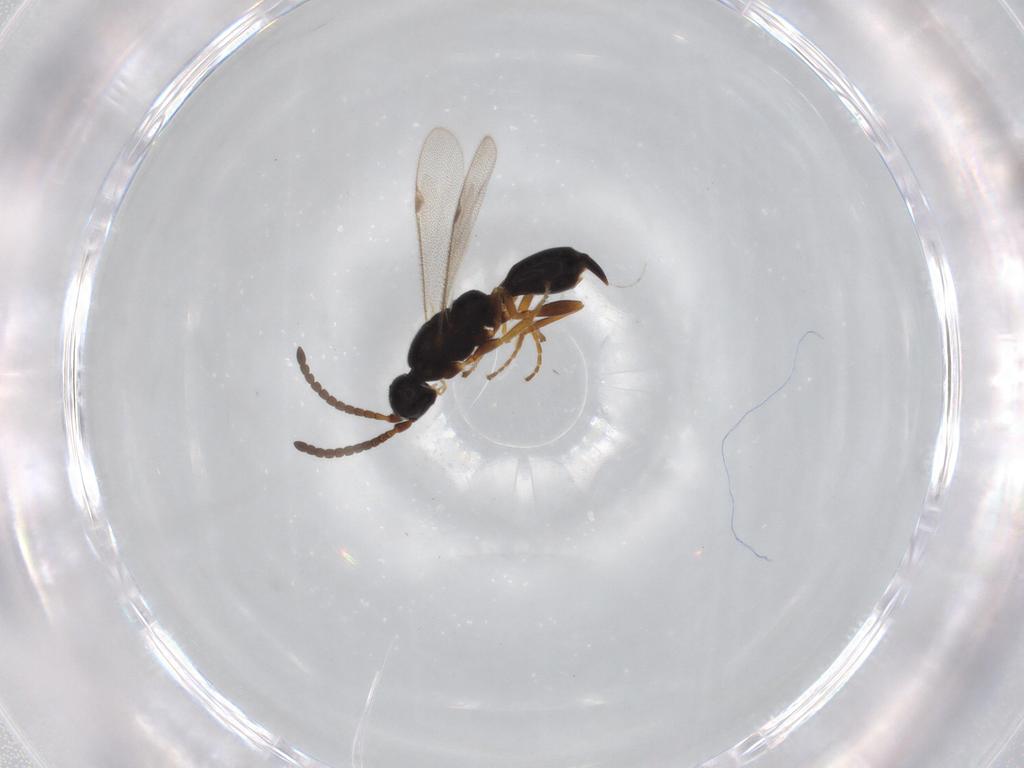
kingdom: Animalia
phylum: Arthropoda
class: Insecta
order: Hymenoptera
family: Proctotrupidae
